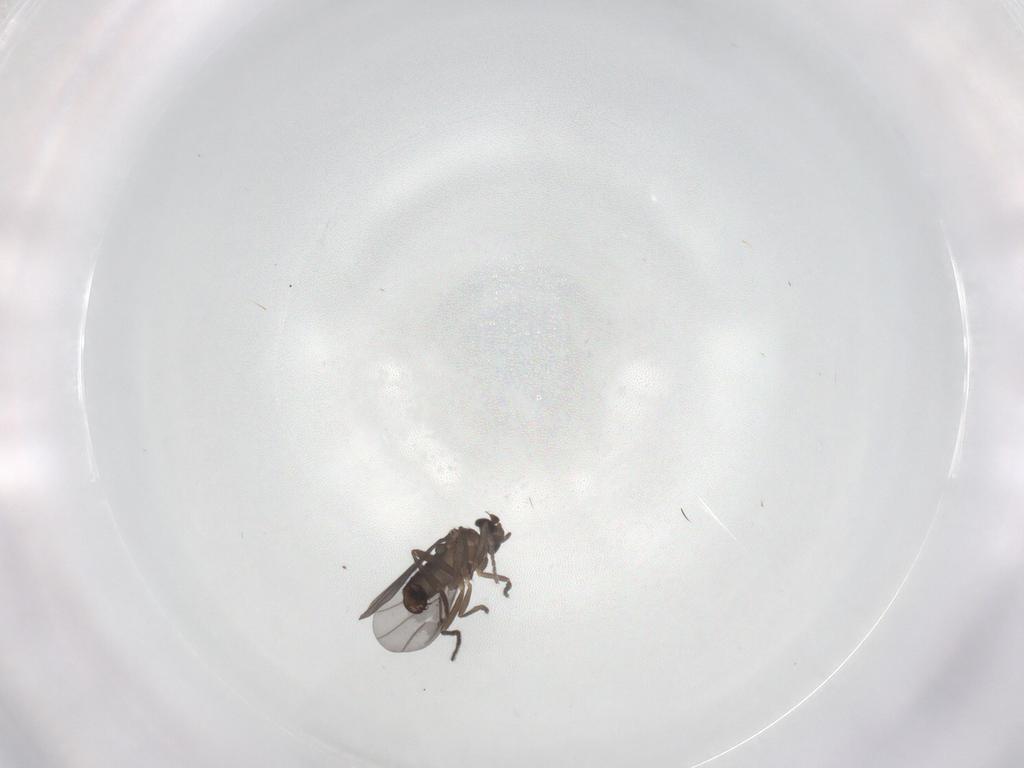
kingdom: Animalia
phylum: Arthropoda
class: Insecta
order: Diptera
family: Phoridae
